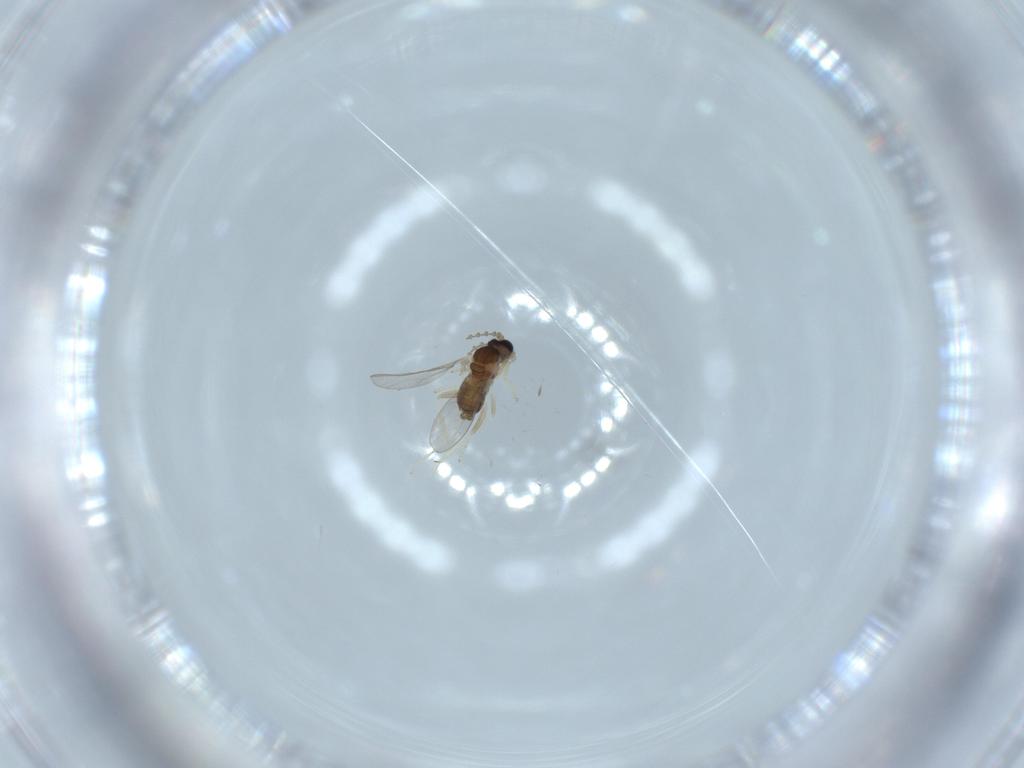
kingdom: Animalia
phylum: Arthropoda
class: Insecta
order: Diptera
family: Cecidomyiidae
